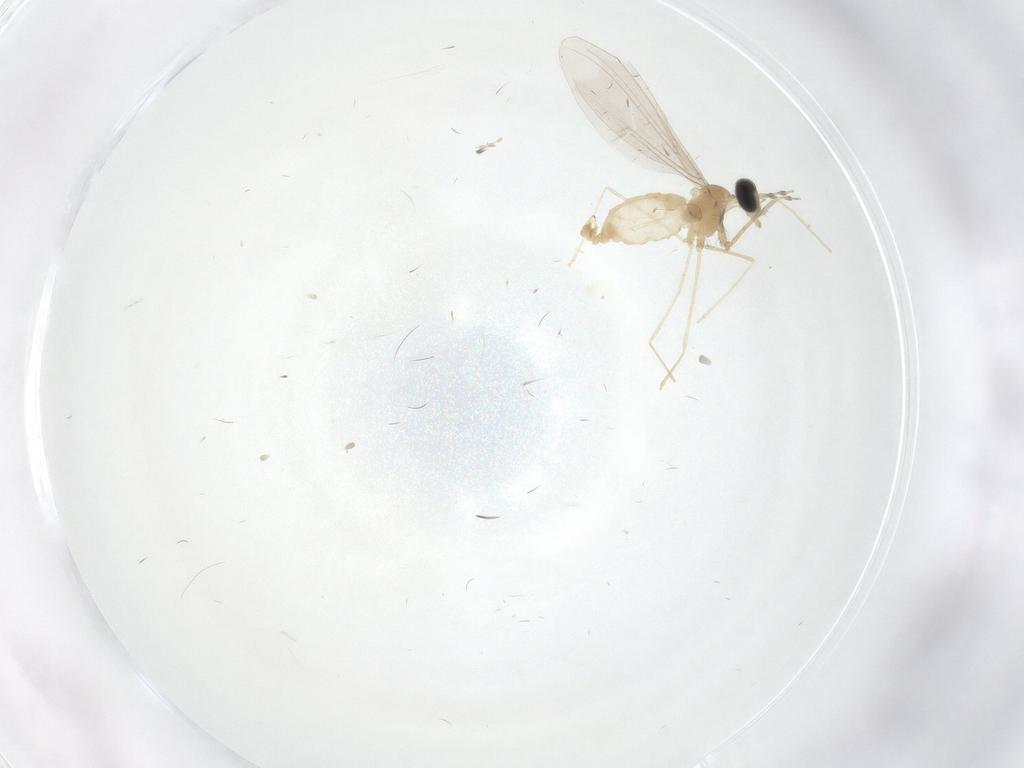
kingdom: Animalia
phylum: Arthropoda
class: Insecta
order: Diptera
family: Cecidomyiidae
